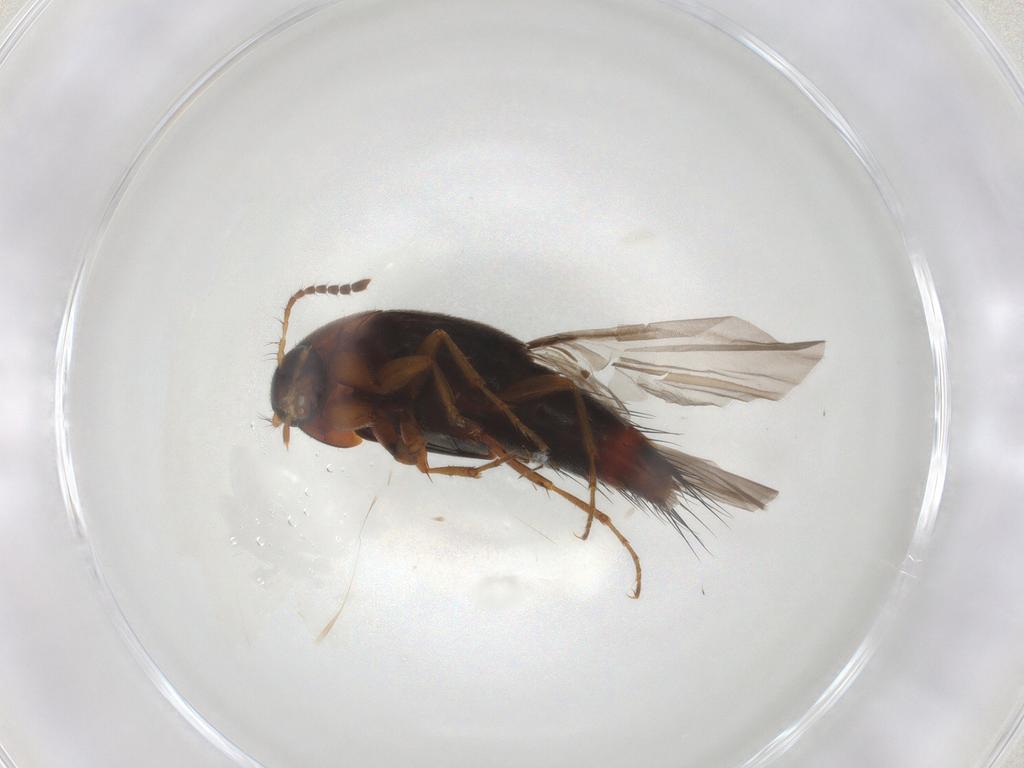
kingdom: Animalia
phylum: Arthropoda
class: Insecta
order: Coleoptera
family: Staphylinidae
